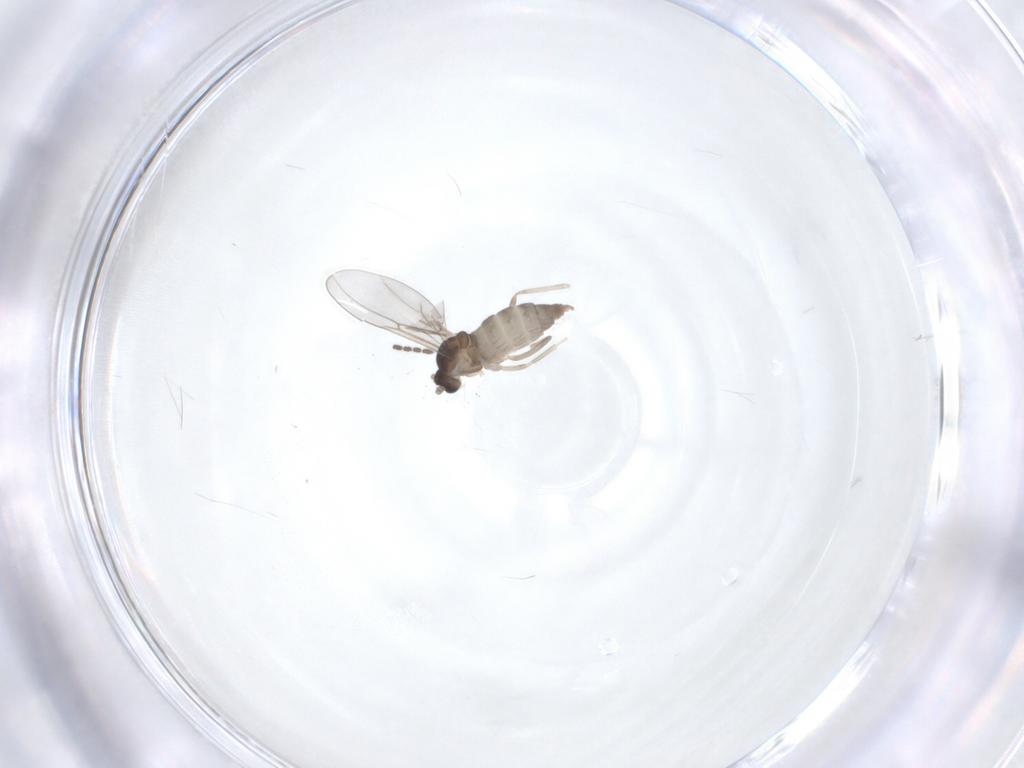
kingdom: Animalia
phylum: Arthropoda
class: Insecta
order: Diptera
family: Cecidomyiidae
